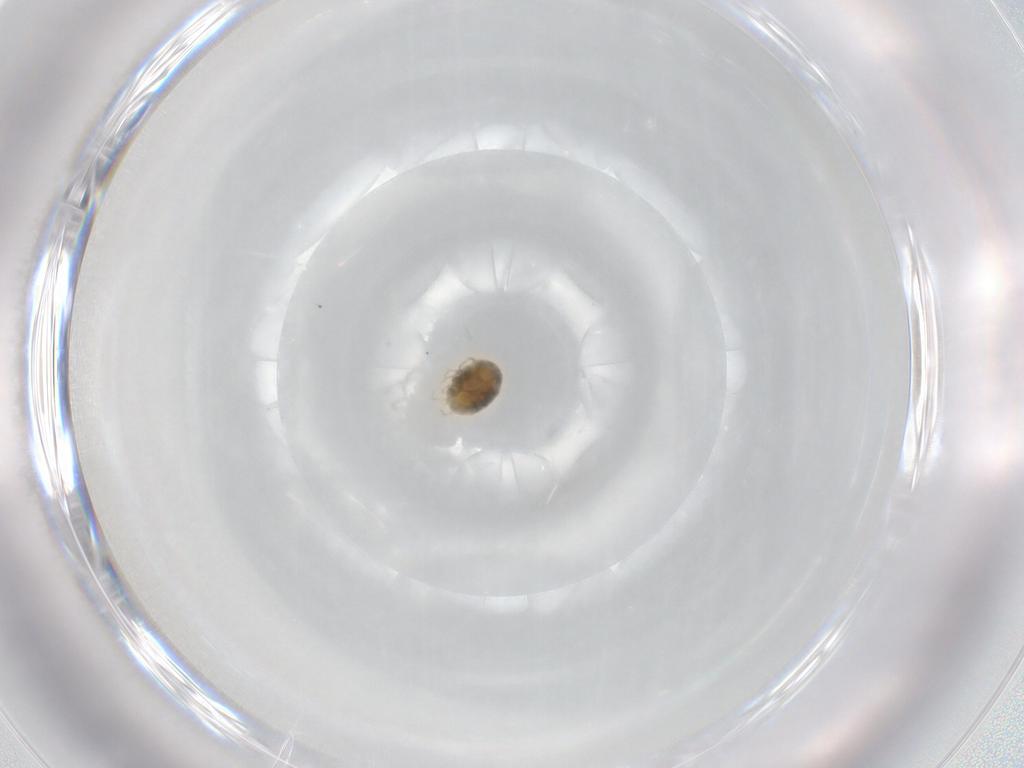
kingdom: Animalia
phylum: Arthropoda
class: Arachnida
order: Trombidiformes
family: Tetranychidae
